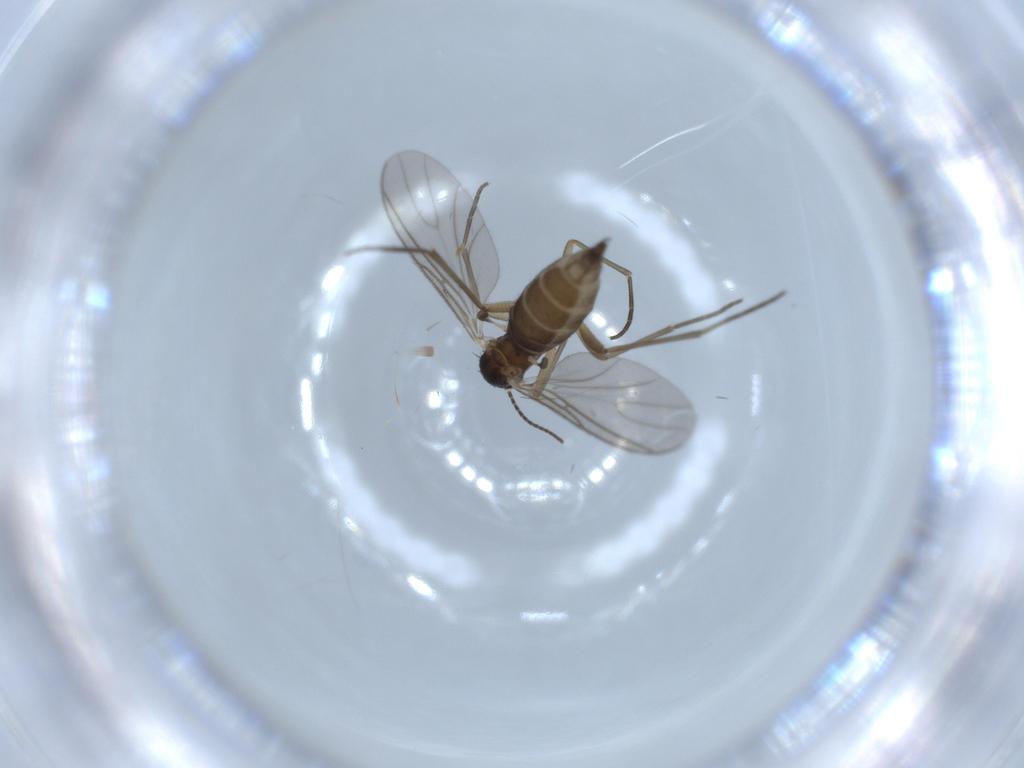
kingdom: Animalia
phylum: Arthropoda
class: Insecta
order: Diptera
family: Sciaridae
